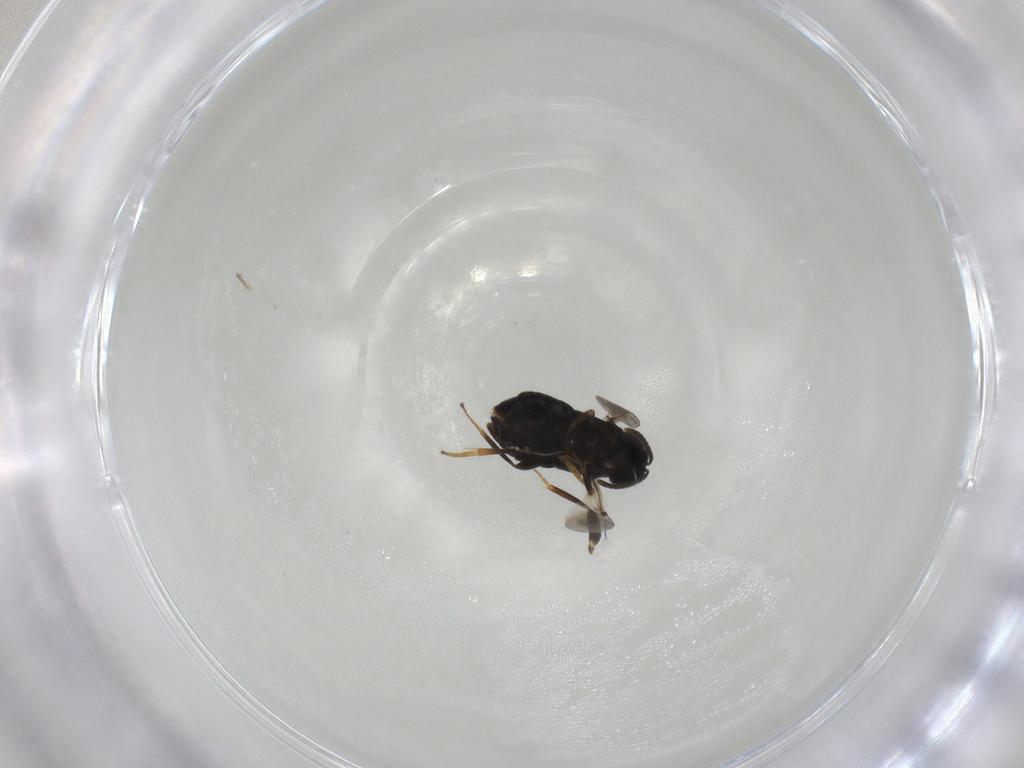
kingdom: Animalia
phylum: Arthropoda
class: Insecta
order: Hymenoptera
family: Mymaridae
